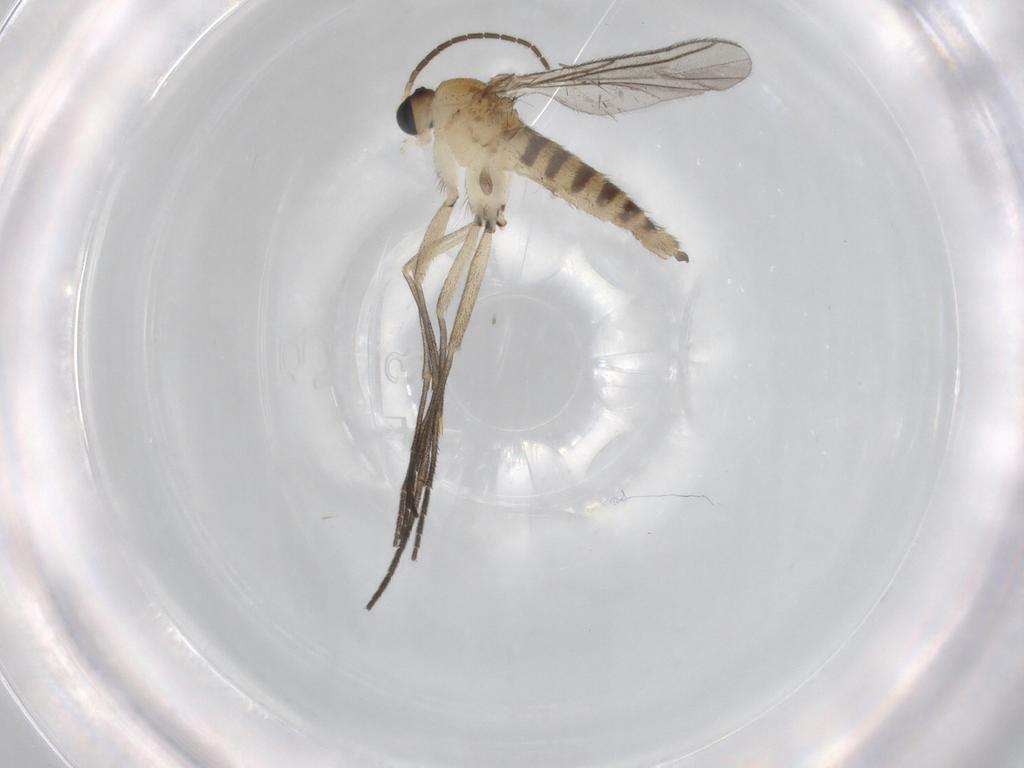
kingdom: Animalia
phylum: Arthropoda
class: Insecta
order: Diptera
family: Sciaridae
